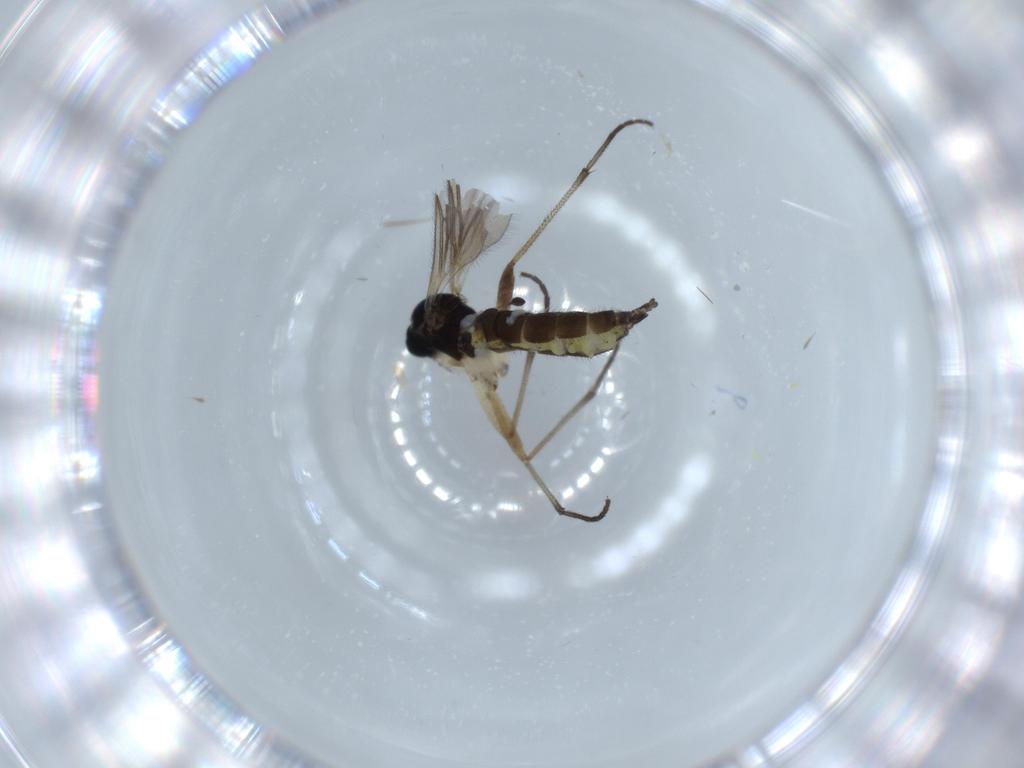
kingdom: Animalia
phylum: Arthropoda
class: Insecta
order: Diptera
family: Sciaridae
